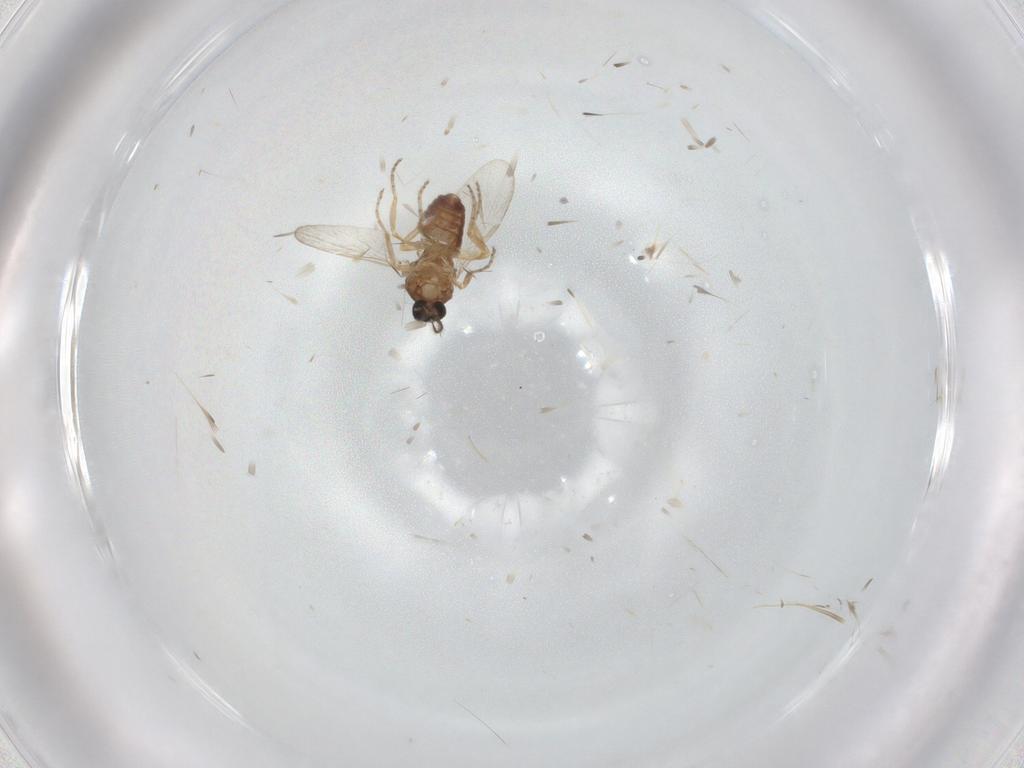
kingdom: Animalia
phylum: Arthropoda
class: Insecta
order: Diptera
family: Ceratopogonidae
